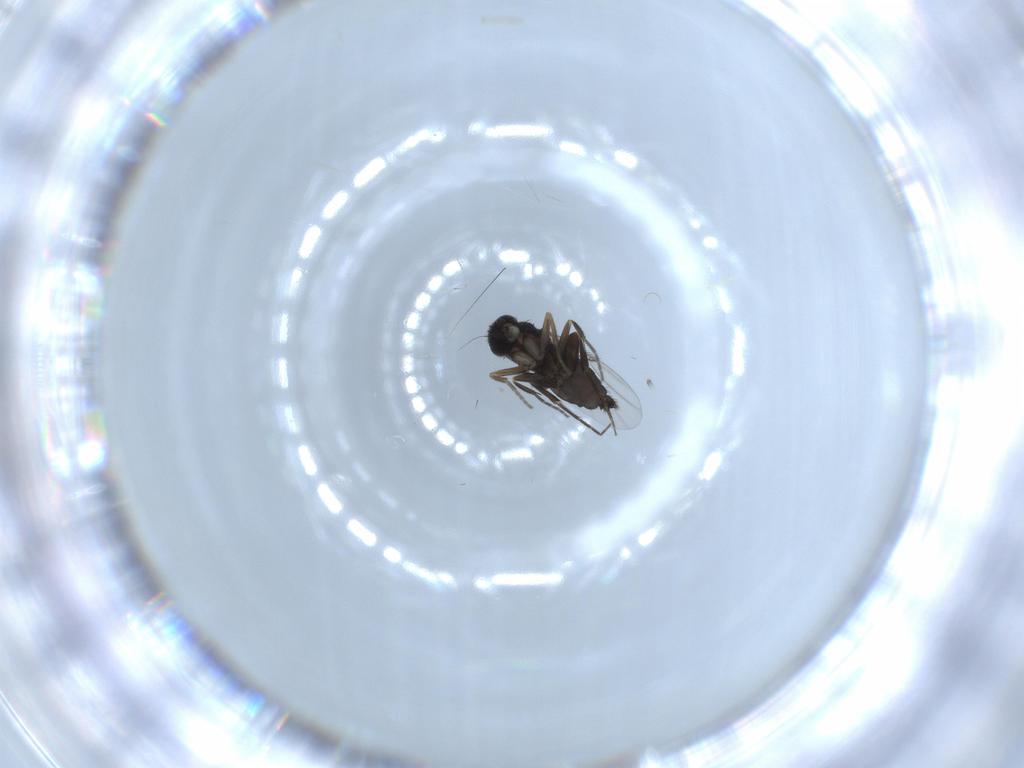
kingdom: Animalia
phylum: Arthropoda
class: Insecta
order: Diptera
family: Phoridae
